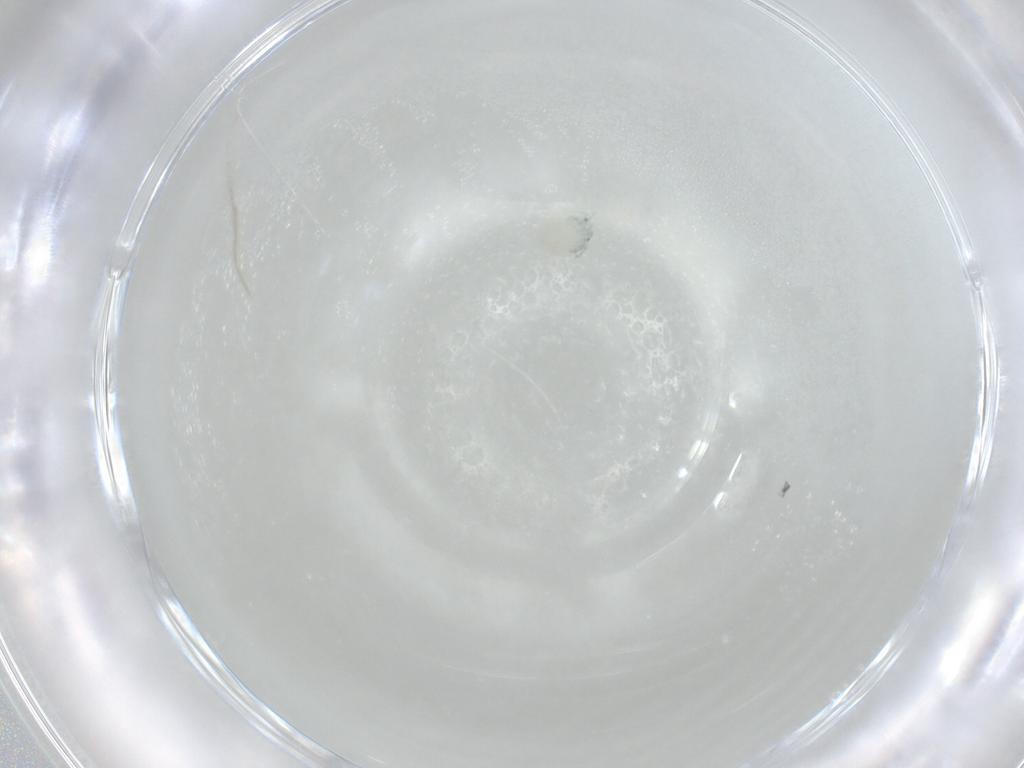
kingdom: Animalia
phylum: Arthropoda
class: Arachnida
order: Trombidiformes
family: Arrenuridae
